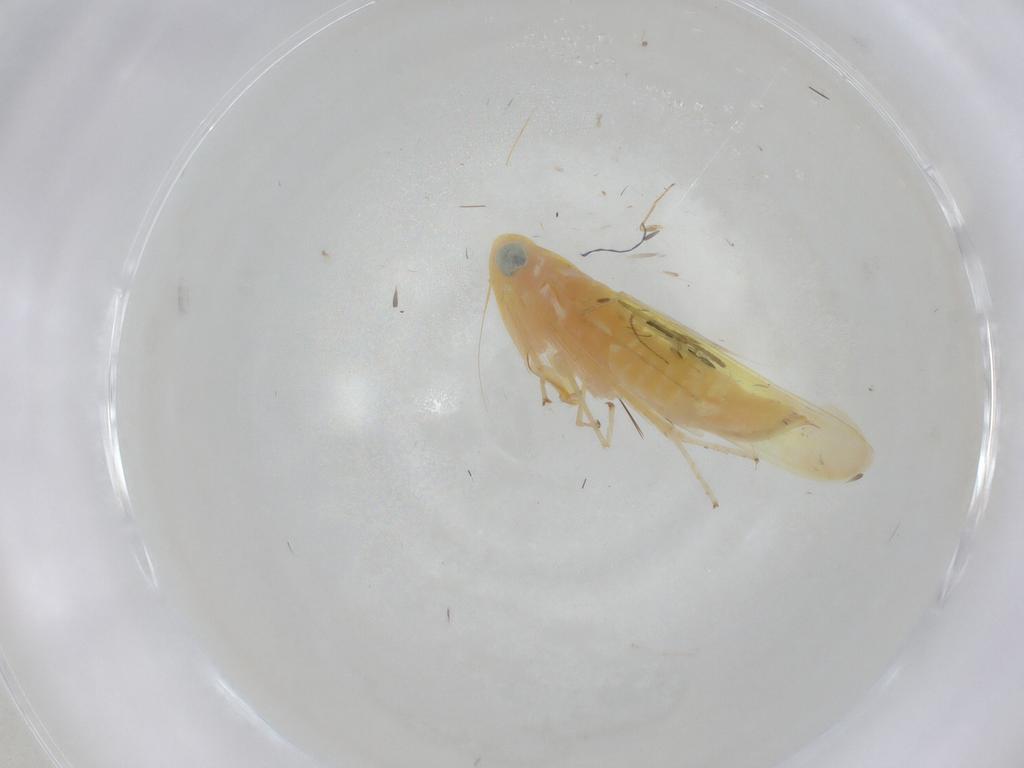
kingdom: Animalia
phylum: Arthropoda
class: Insecta
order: Hemiptera
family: Cicadellidae
